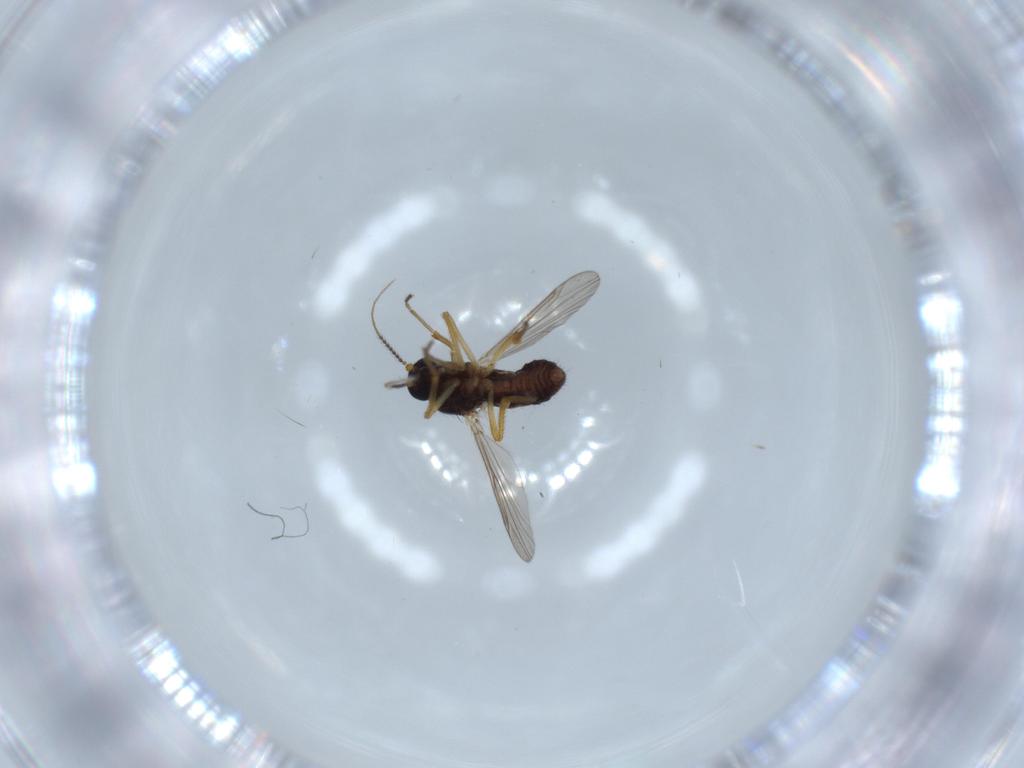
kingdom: Animalia
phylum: Arthropoda
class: Insecta
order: Diptera
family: Ceratopogonidae
